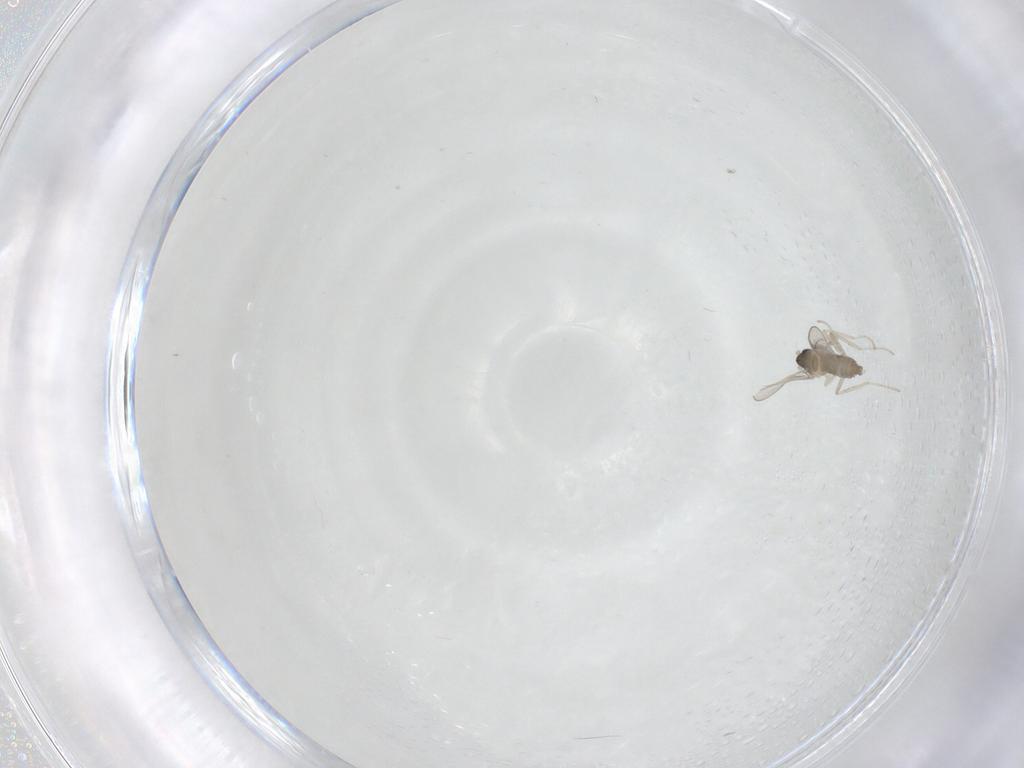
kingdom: Animalia
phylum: Arthropoda
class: Insecta
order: Diptera
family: Cecidomyiidae
